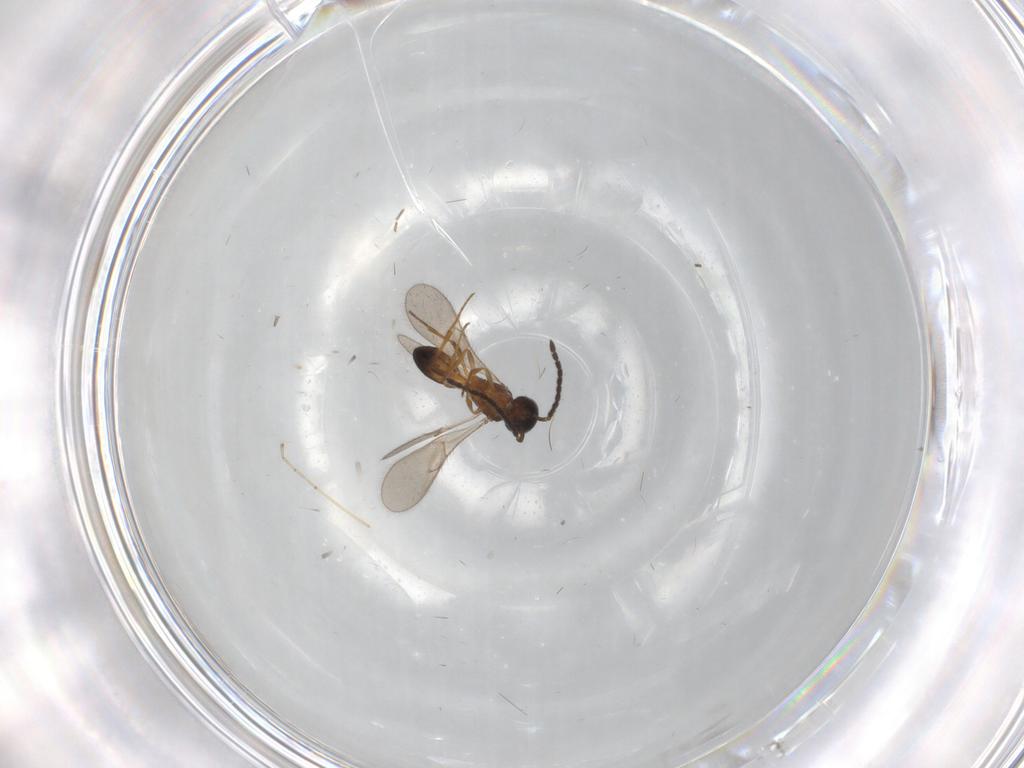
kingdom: Animalia
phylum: Arthropoda
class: Insecta
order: Hymenoptera
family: Scelionidae
